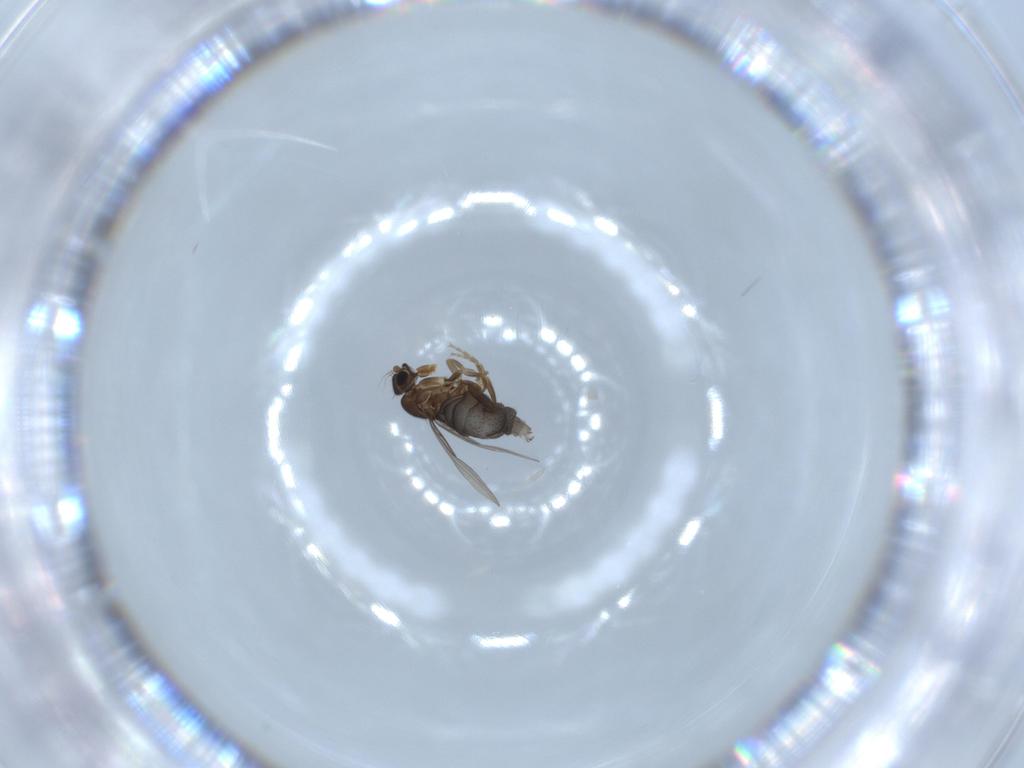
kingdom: Animalia
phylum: Arthropoda
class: Insecta
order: Diptera
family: Phoridae
